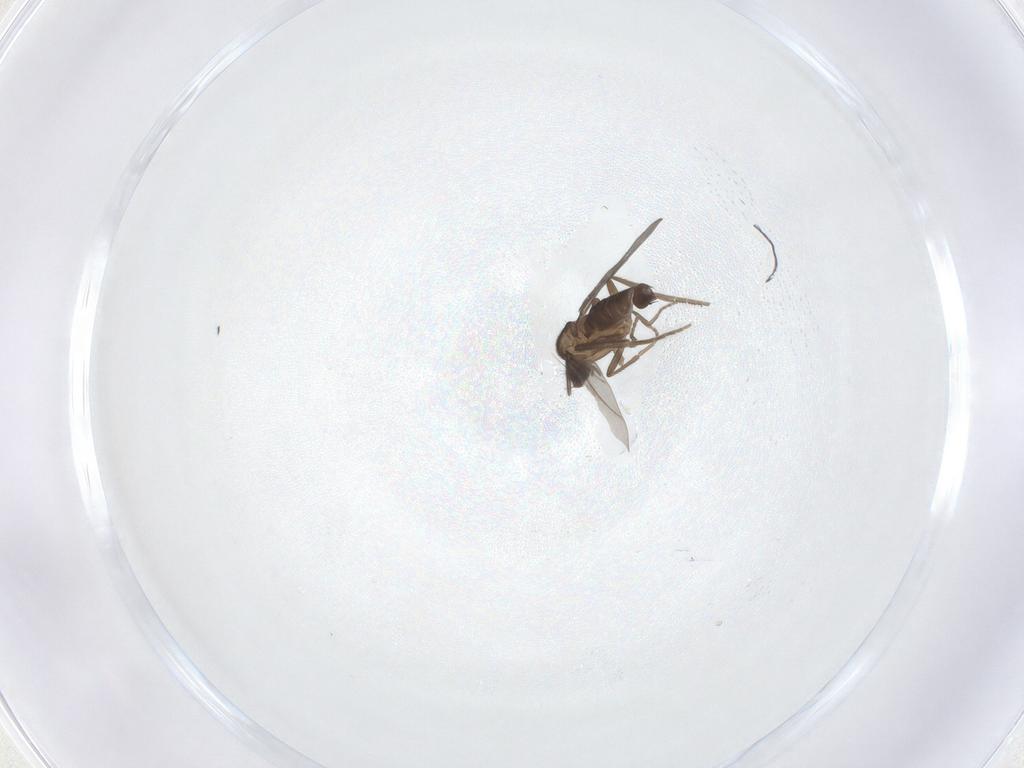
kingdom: Animalia
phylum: Arthropoda
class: Insecta
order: Diptera
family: Phoridae
